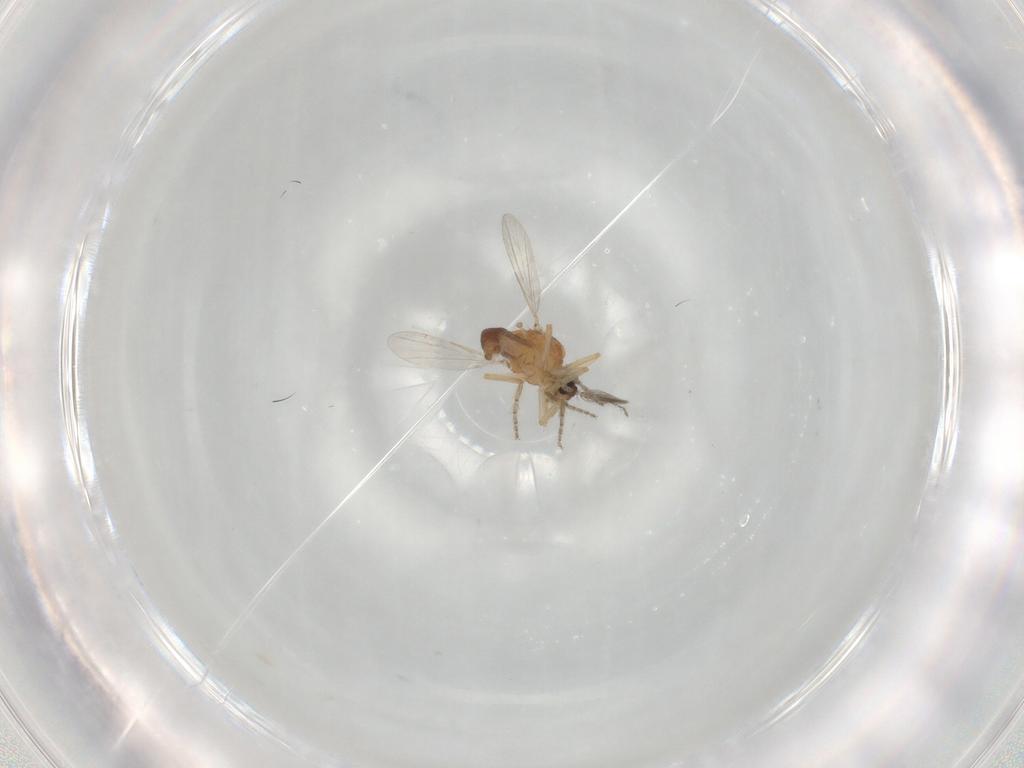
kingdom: Animalia
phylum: Arthropoda
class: Insecta
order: Diptera
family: Ceratopogonidae
